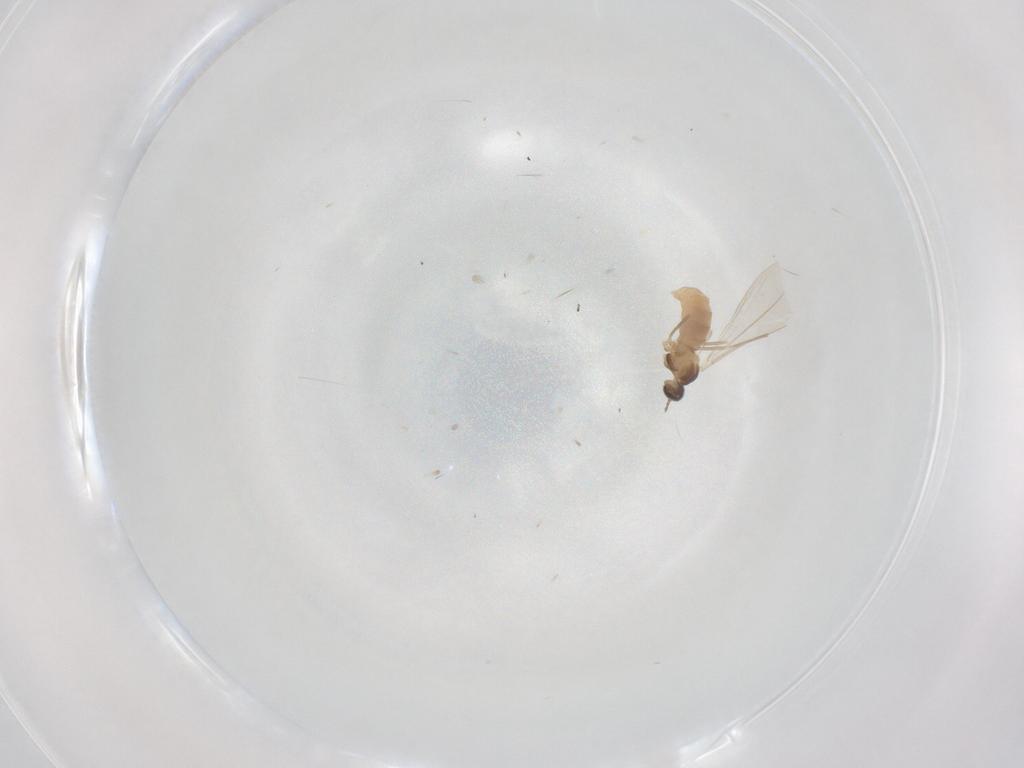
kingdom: Animalia
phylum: Arthropoda
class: Insecta
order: Diptera
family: Cecidomyiidae
